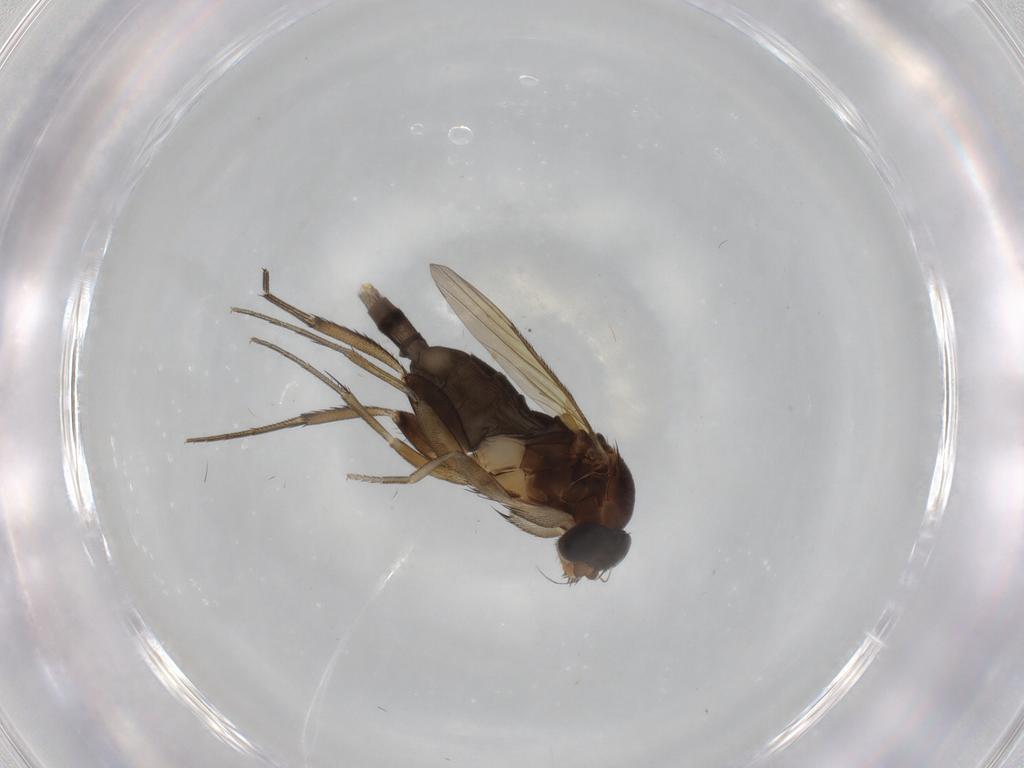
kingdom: Animalia
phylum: Arthropoda
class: Insecta
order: Diptera
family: Phoridae
